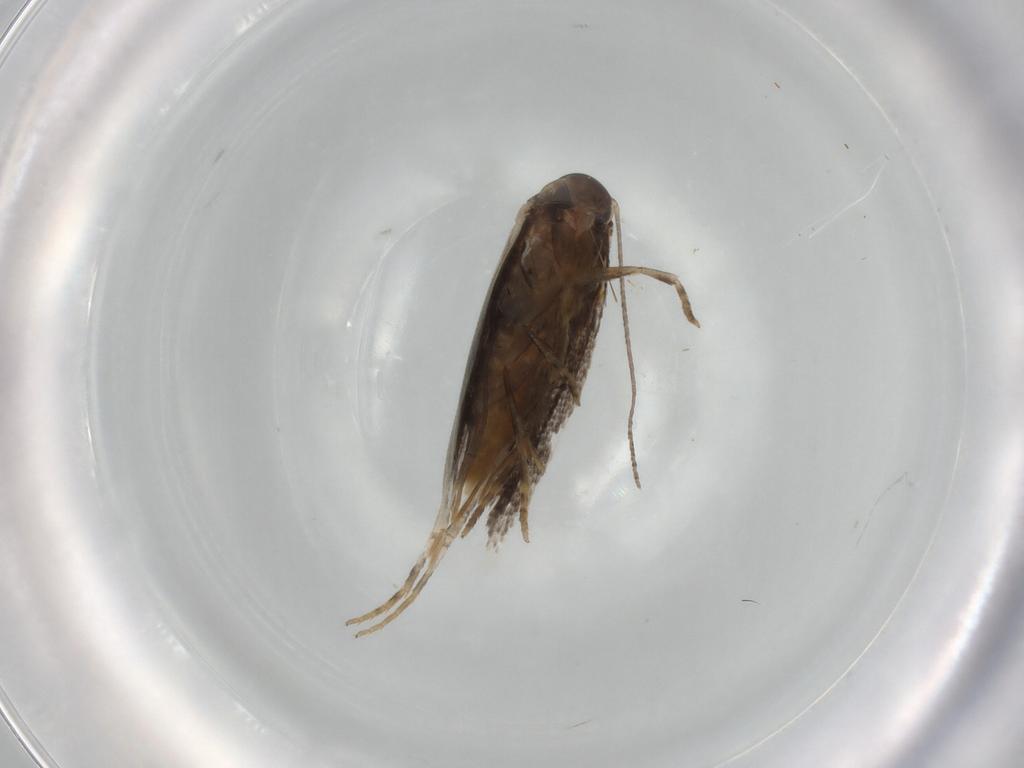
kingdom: Animalia
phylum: Arthropoda
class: Insecta
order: Lepidoptera
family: Elachistidae
